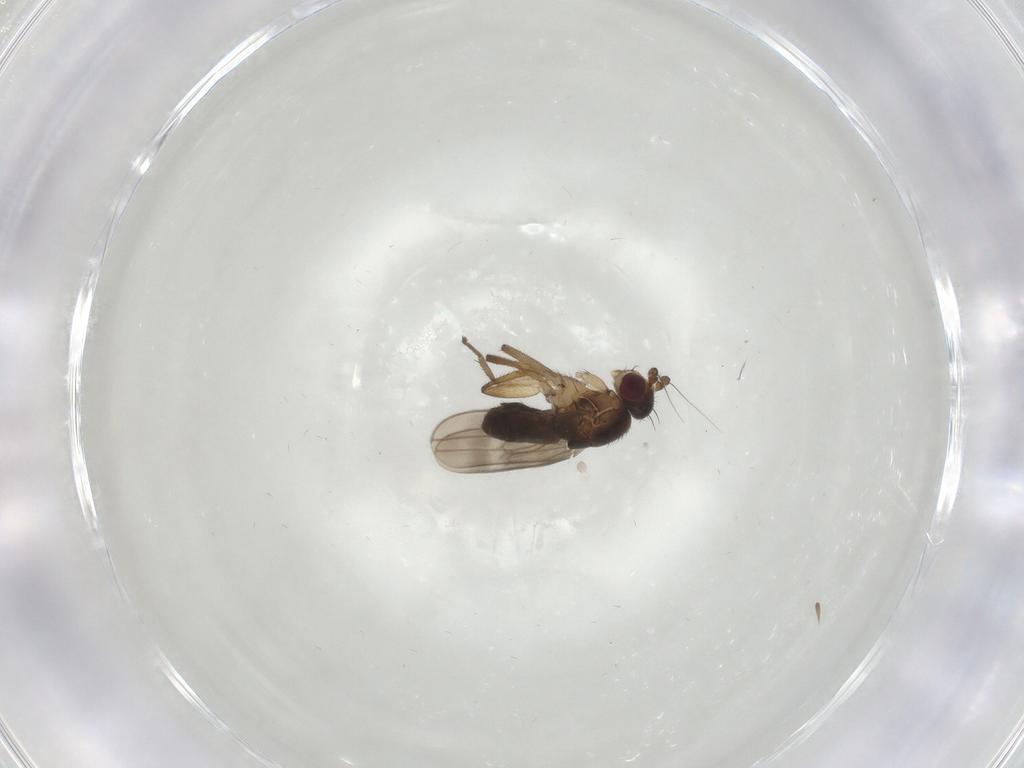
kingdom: Animalia
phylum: Arthropoda
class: Insecta
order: Diptera
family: Sphaeroceridae
